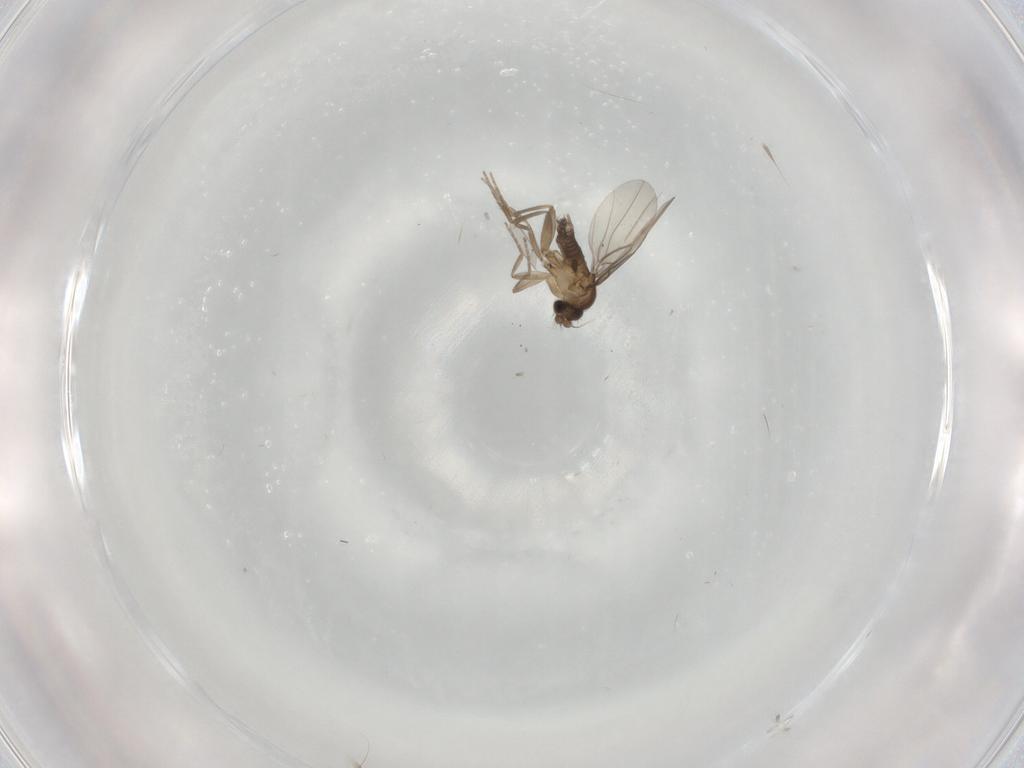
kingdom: Animalia
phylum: Arthropoda
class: Insecta
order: Diptera
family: Cecidomyiidae
